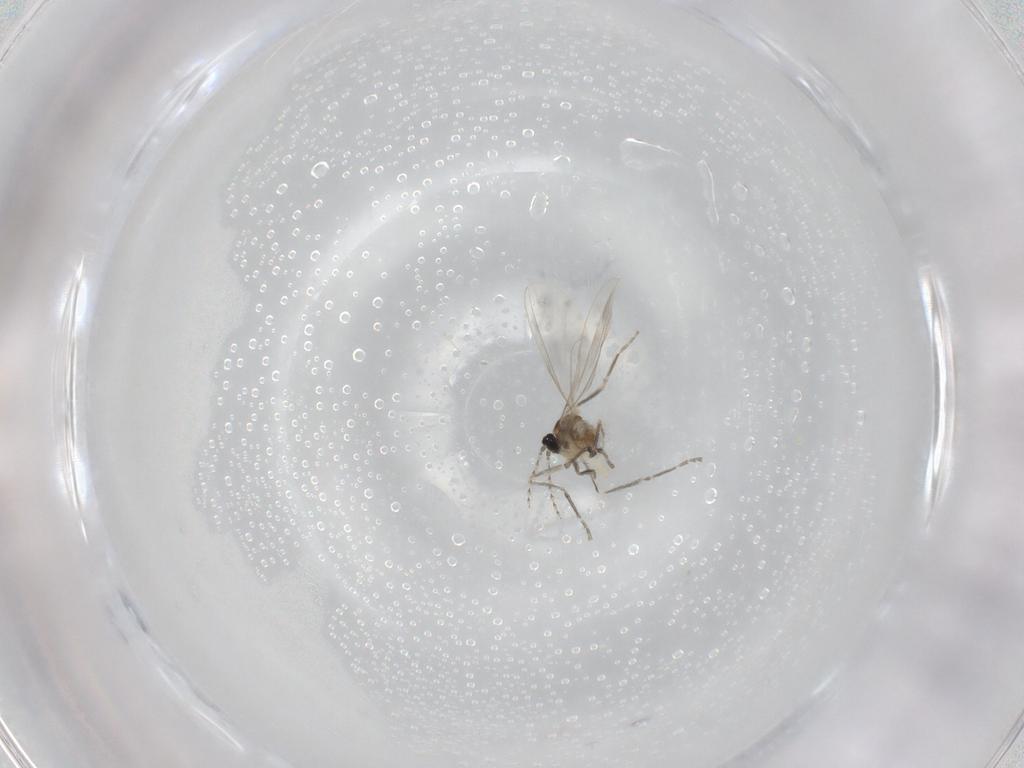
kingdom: Animalia
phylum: Arthropoda
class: Insecta
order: Diptera
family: Cecidomyiidae
